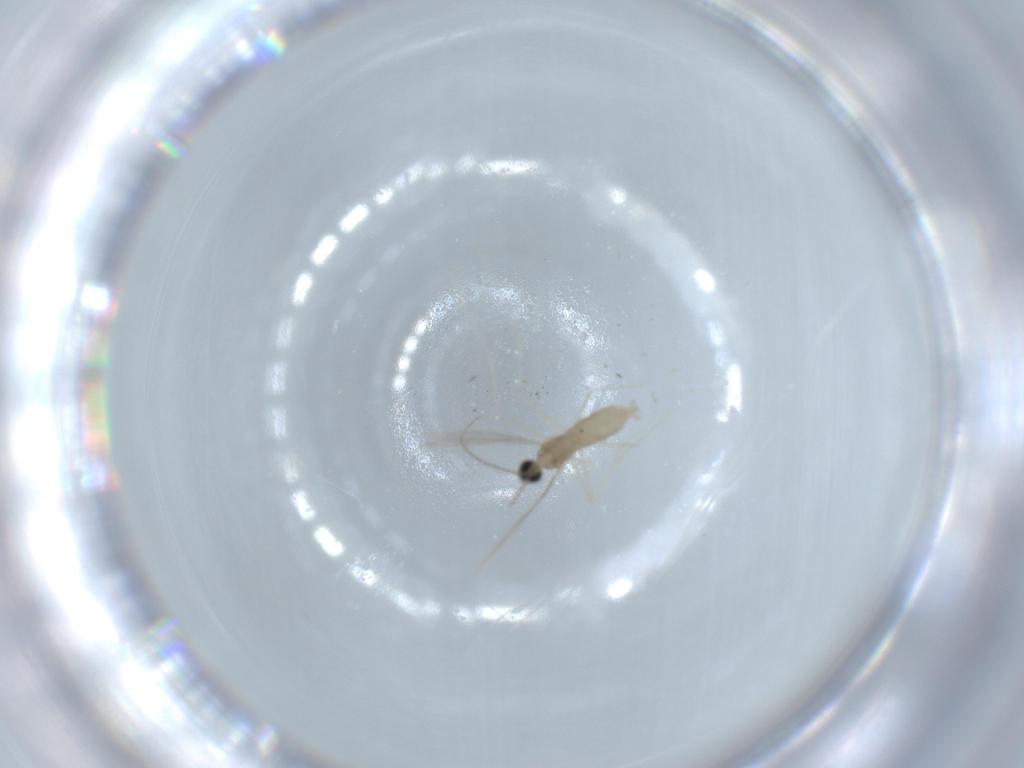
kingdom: Animalia
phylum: Arthropoda
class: Insecta
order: Diptera
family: Cecidomyiidae
